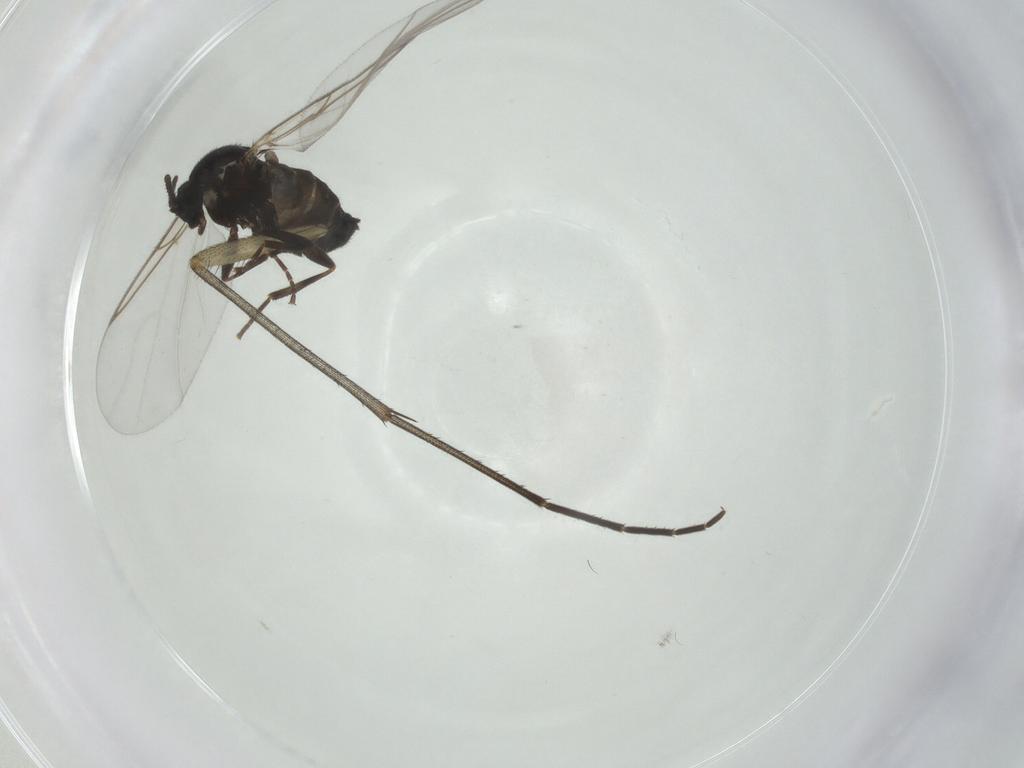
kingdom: Animalia
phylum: Arthropoda
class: Insecta
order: Diptera
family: Scatopsidae
